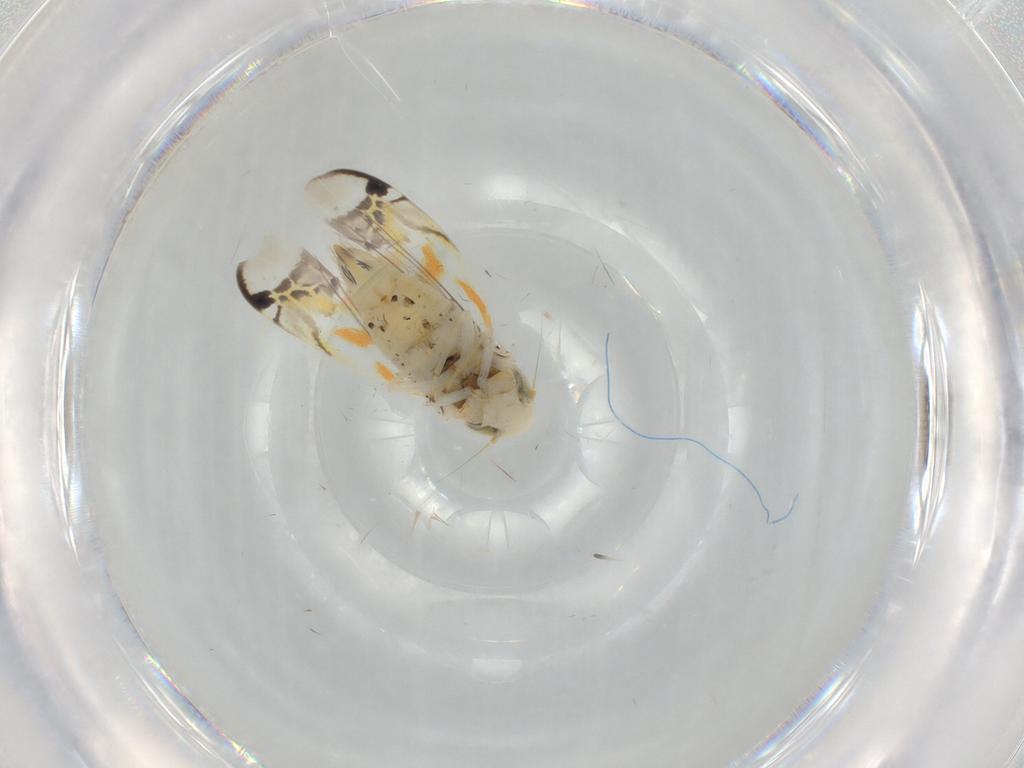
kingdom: Animalia
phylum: Arthropoda
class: Insecta
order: Hemiptera
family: Cicadellidae
